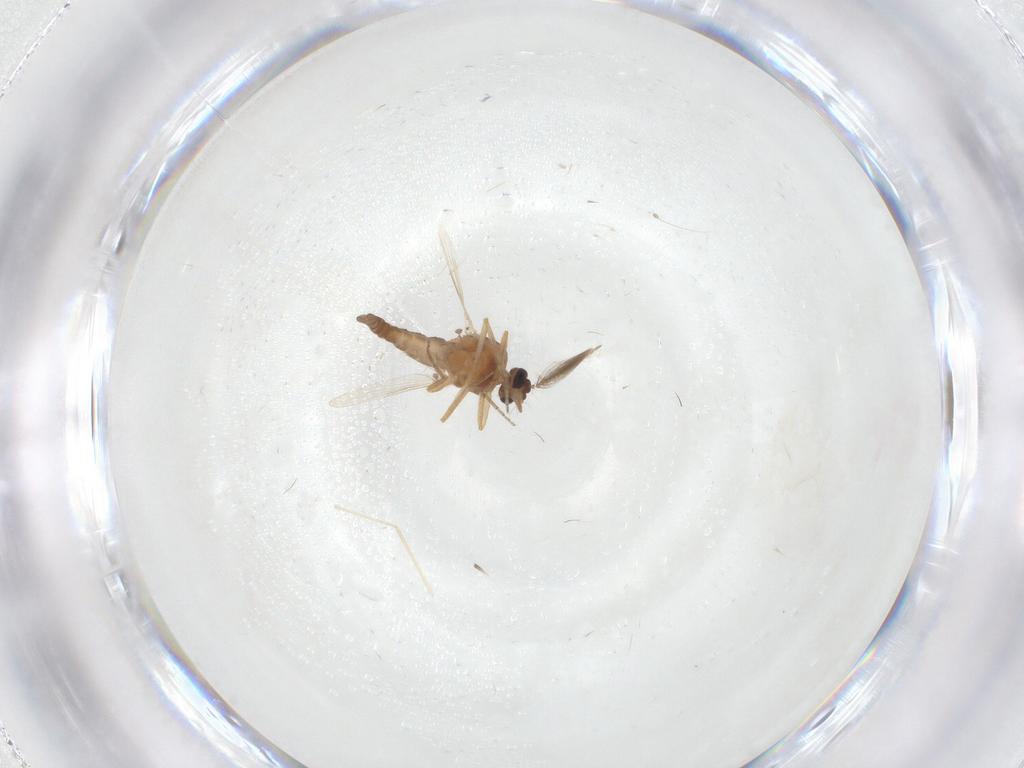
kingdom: Animalia
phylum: Arthropoda
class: Insecta
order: Diptera
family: Ceratopogonidae
